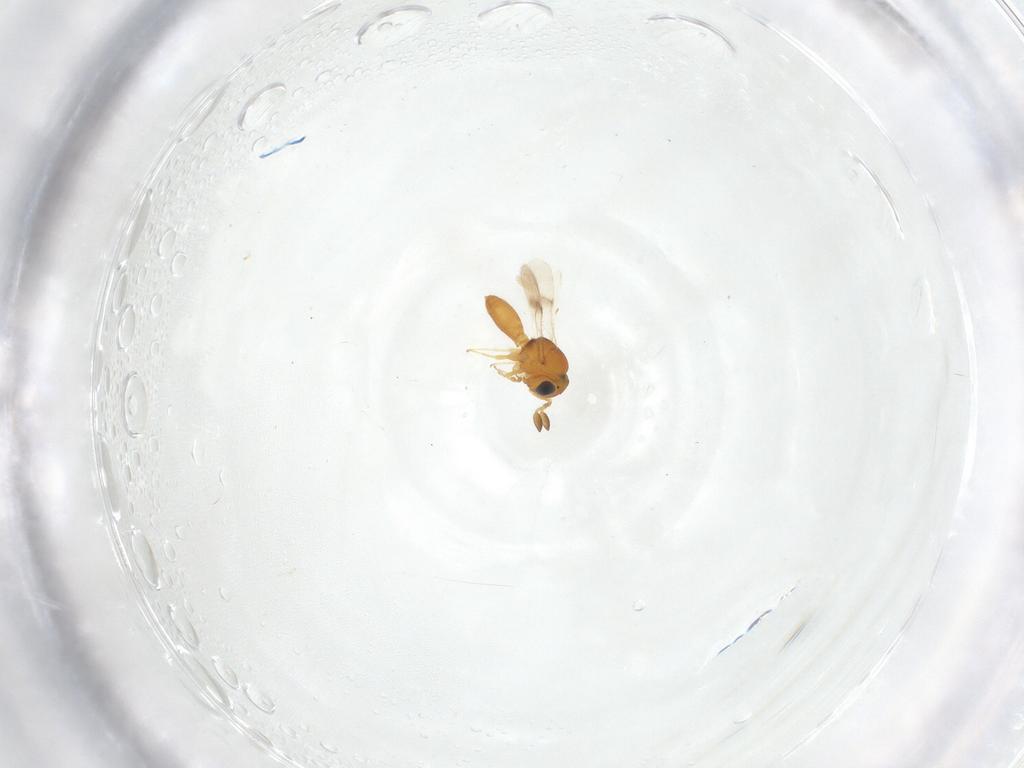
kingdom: Animalia
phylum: Arthropoda
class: Insecta
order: Hymenoptera
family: Scelionidae
